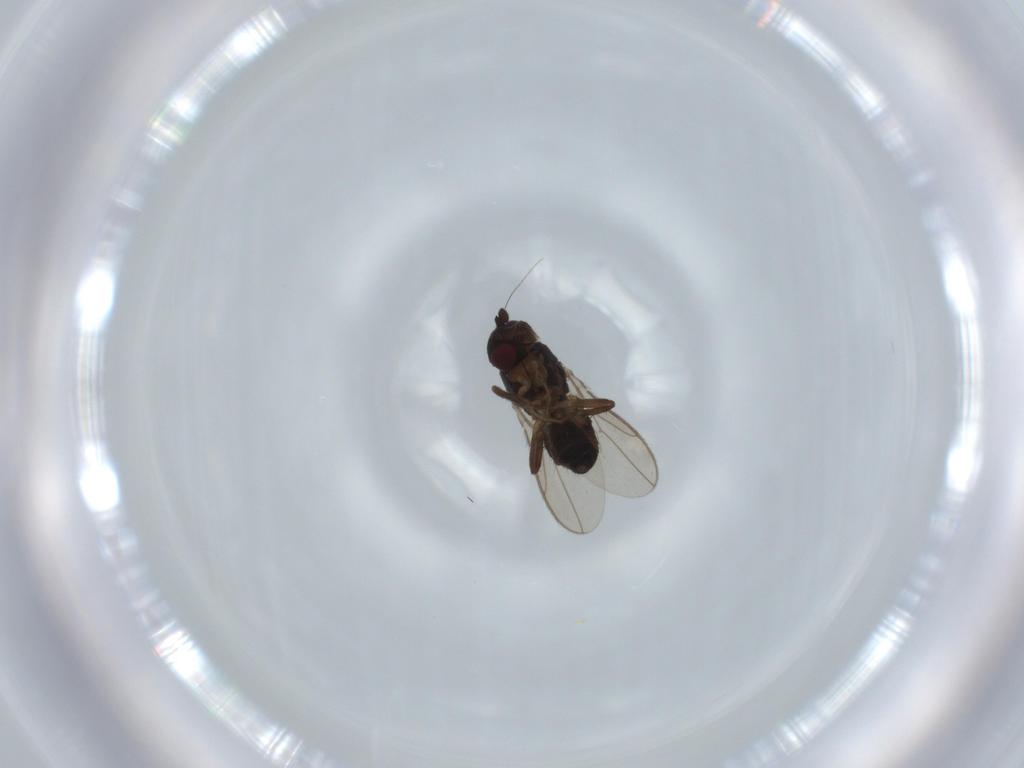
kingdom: Animalia
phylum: Arthropoda
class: Insecta
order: Diptera
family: Sphaeroceridae
